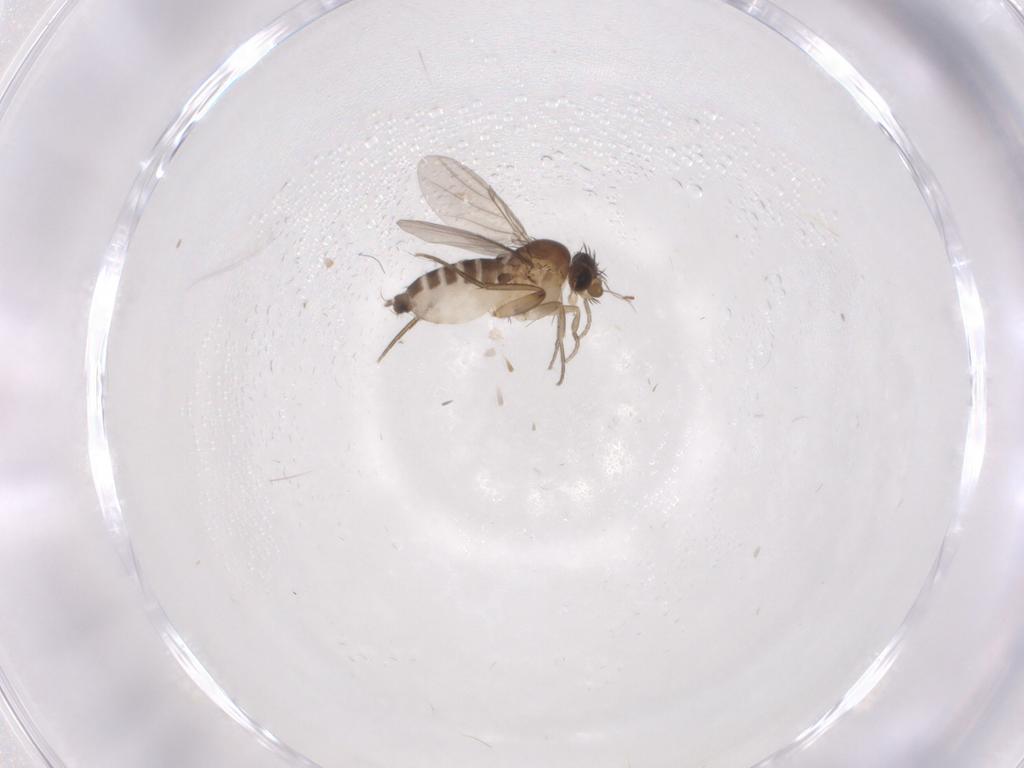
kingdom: Animalia
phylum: Arthropoda
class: Insecta
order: Diptera
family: Chironomidae
